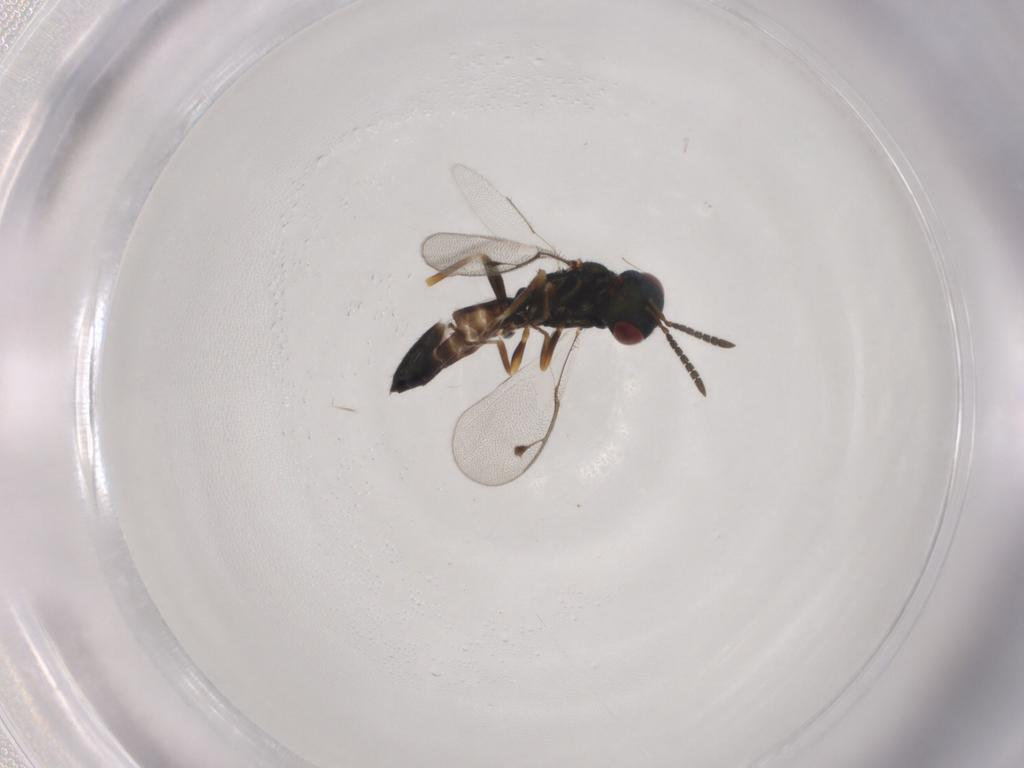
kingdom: Animalia
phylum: Arthropoda
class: Insecta
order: Hymenoptera
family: Pteromalidae
